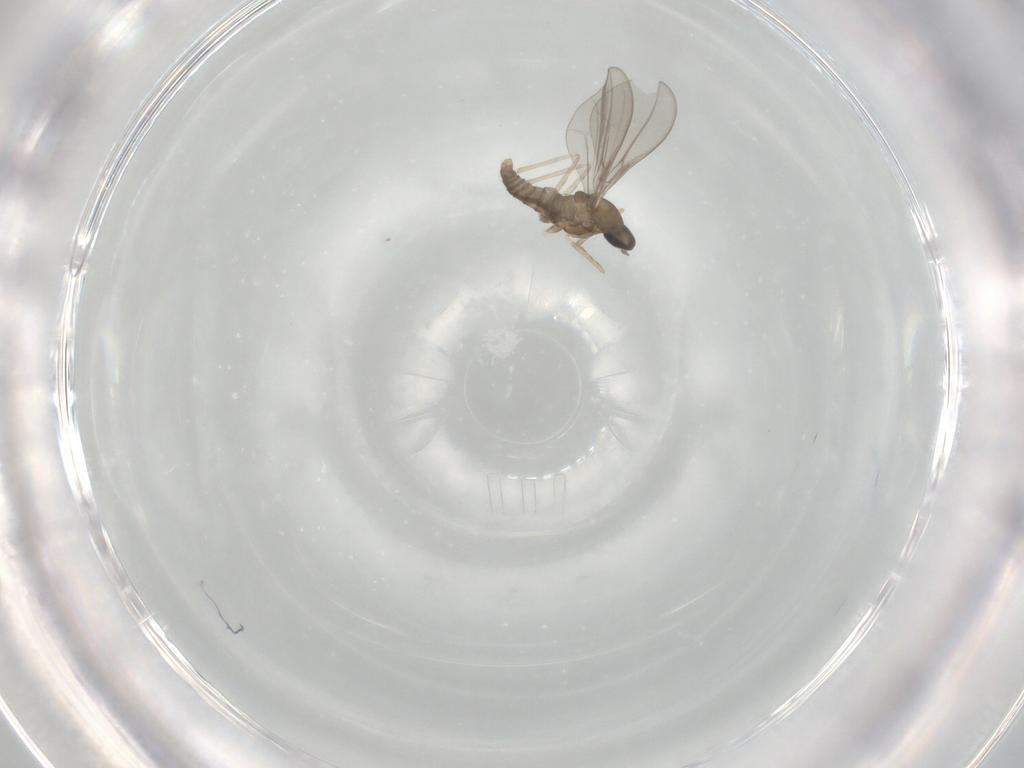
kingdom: Animalia
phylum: Arthropoda
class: Insecta
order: Diptera
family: Cecidomyiidae
